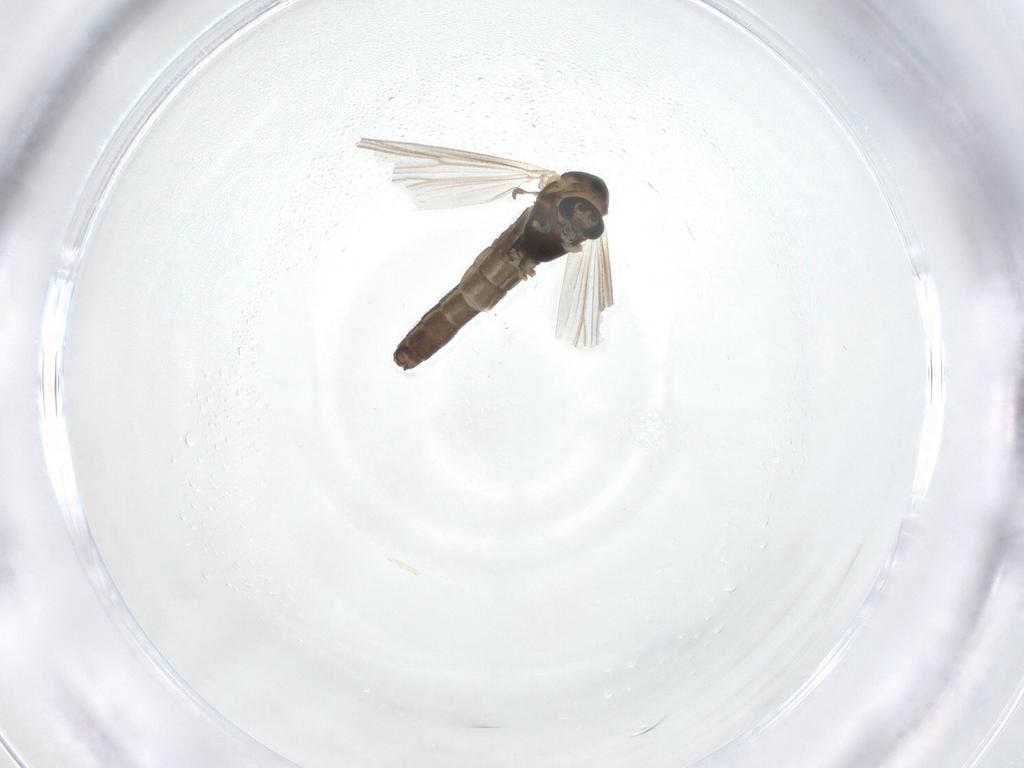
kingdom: Animalia
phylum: Arthropoda
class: Insecta
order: Diptera
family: Chironomidae
